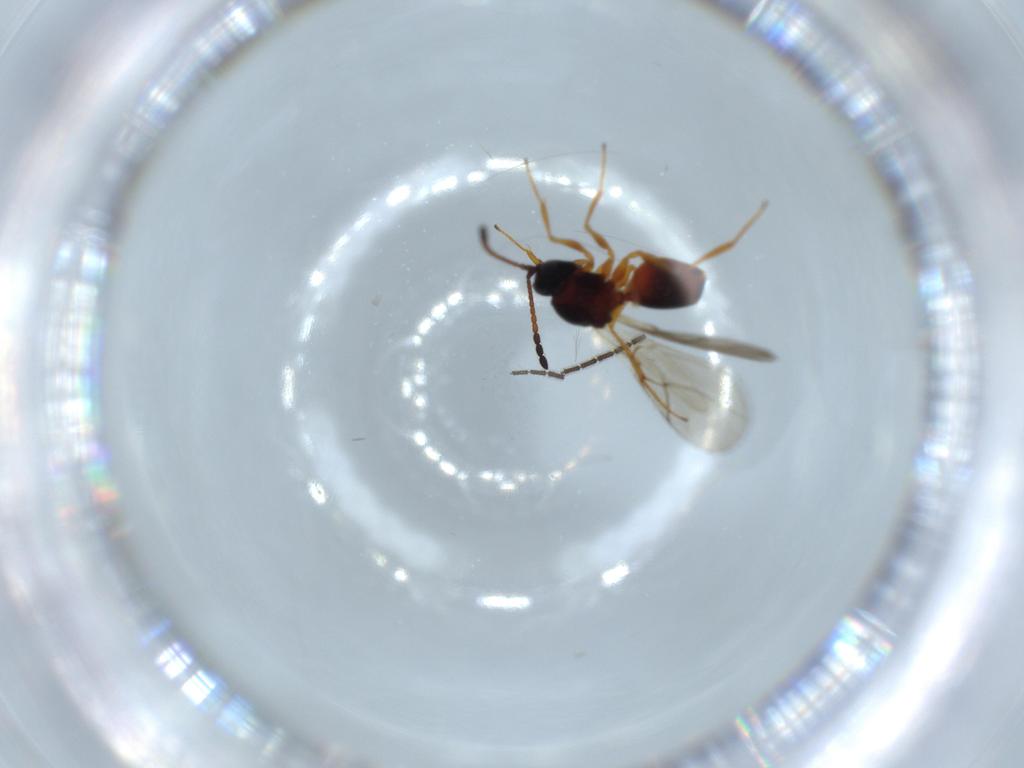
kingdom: Animalia
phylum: Arthropoda
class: Insecta
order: Hymenoptera
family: Figitidae
